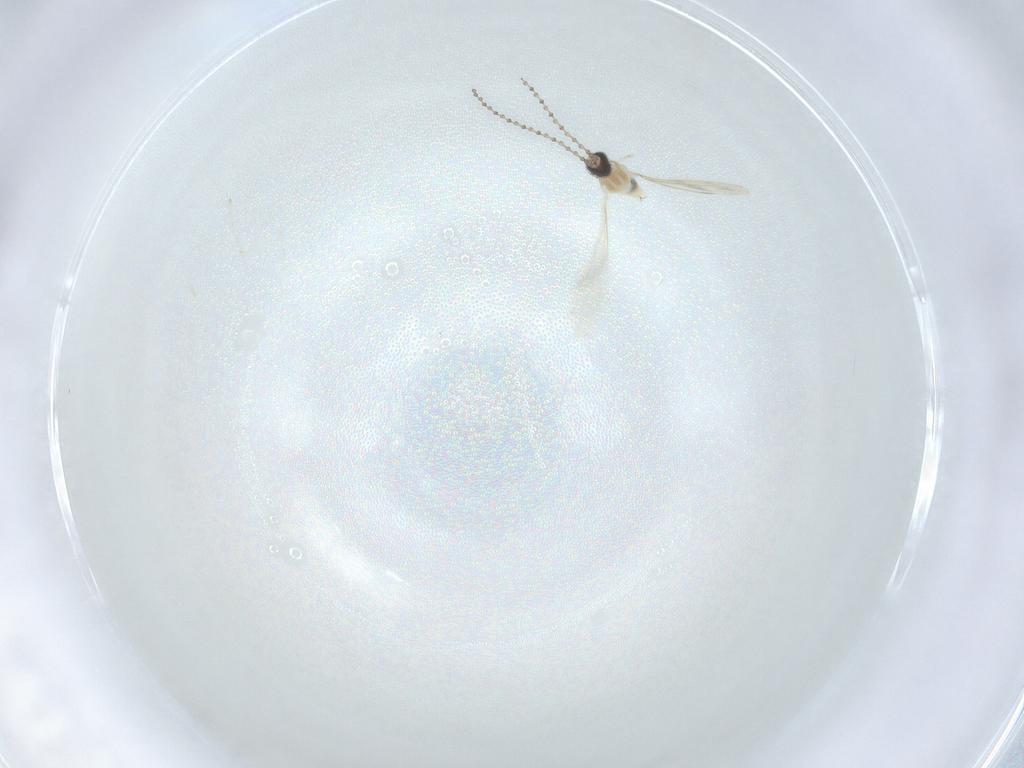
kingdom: Animalia
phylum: Arthropoda
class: Insecta
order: Diptera
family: Cecidomyiidae
